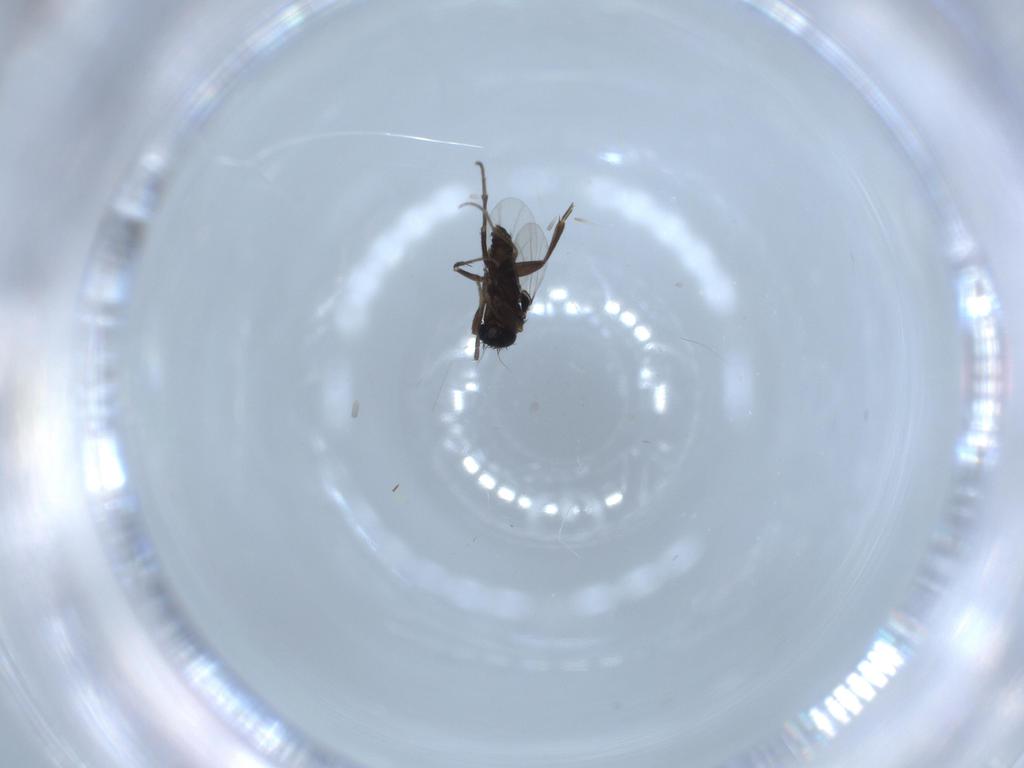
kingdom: Animalia
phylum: Arthropoda
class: Insecta
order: Diptera
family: Phoridae
